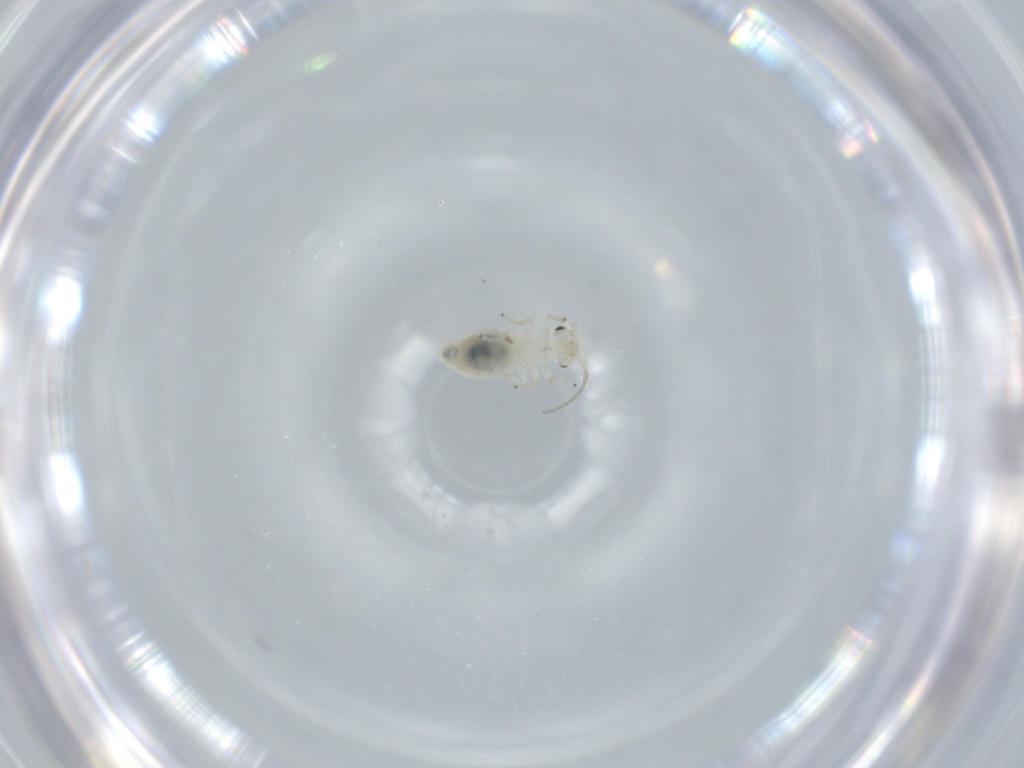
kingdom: Animalia
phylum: Arthropoda
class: Insecta
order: Psocodea
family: Caeciliusidae
